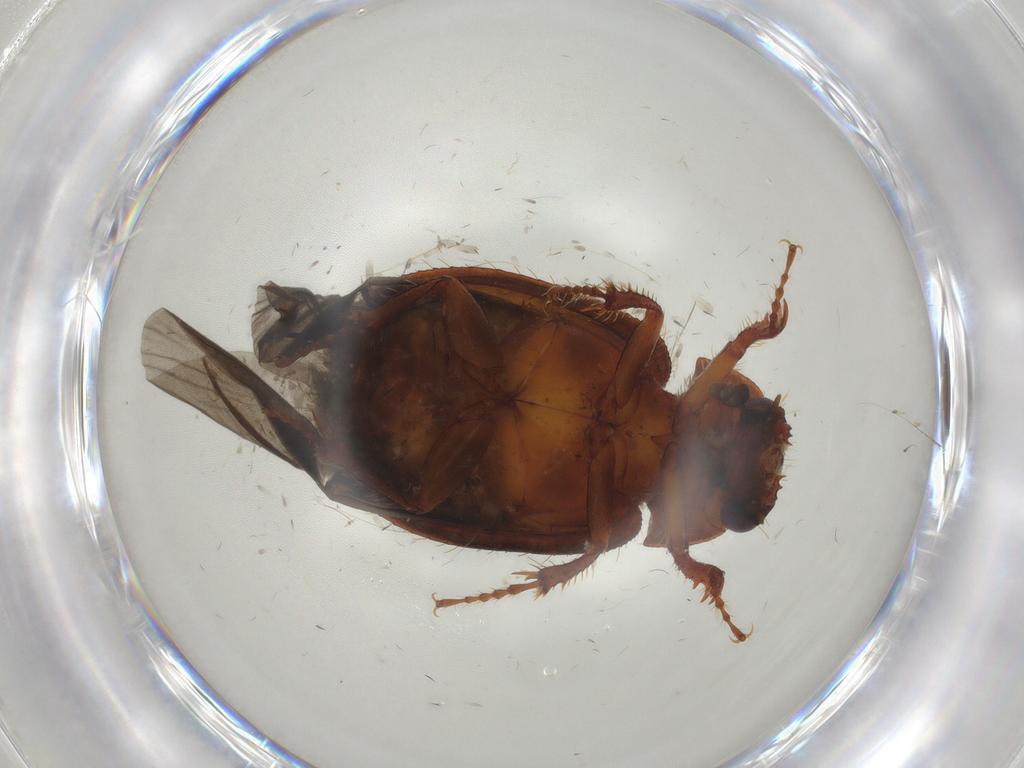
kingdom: Animalia
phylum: Arthropoda
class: Insecta
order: Coleoptera
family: Hybosoridae
